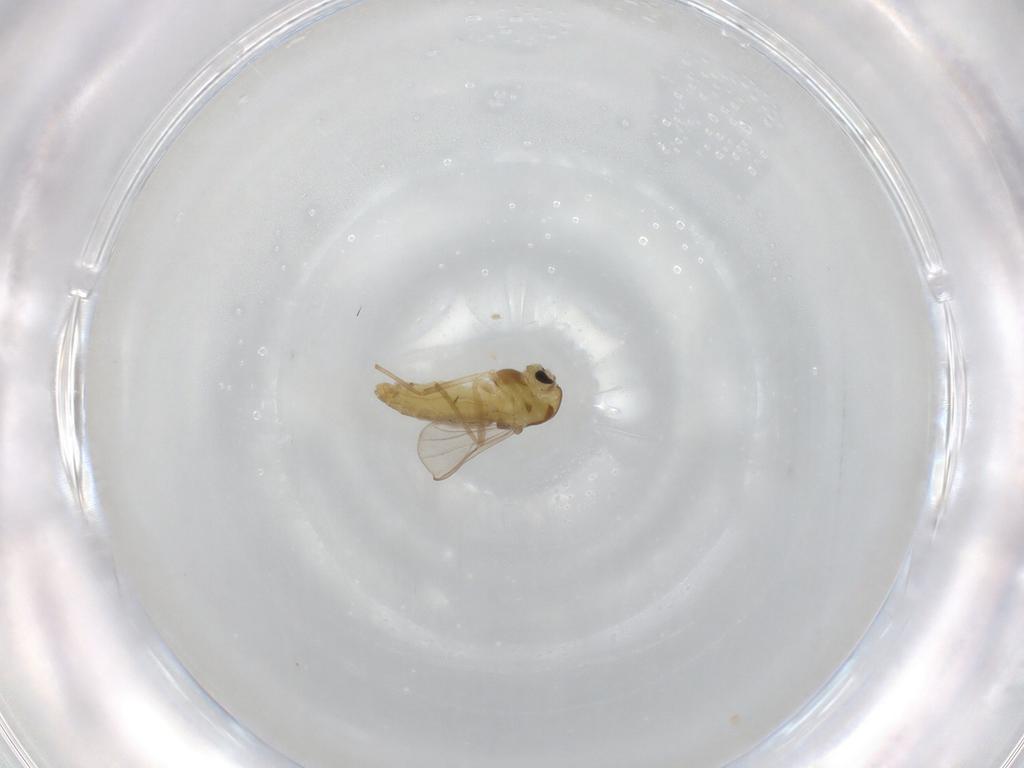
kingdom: Animalia
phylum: Arthropoda
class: Insecta
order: Diptera
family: Chironomidae
